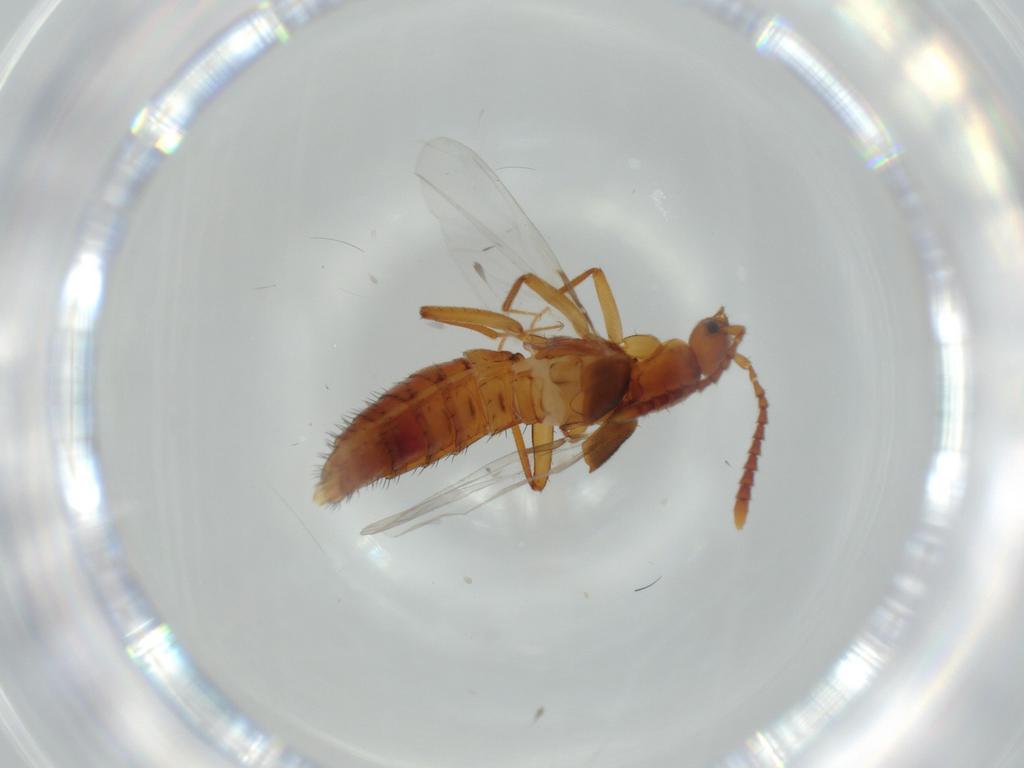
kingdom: Animalia
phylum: Arthropoda
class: Insecta
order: Coleoptera
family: Staphylinidae
